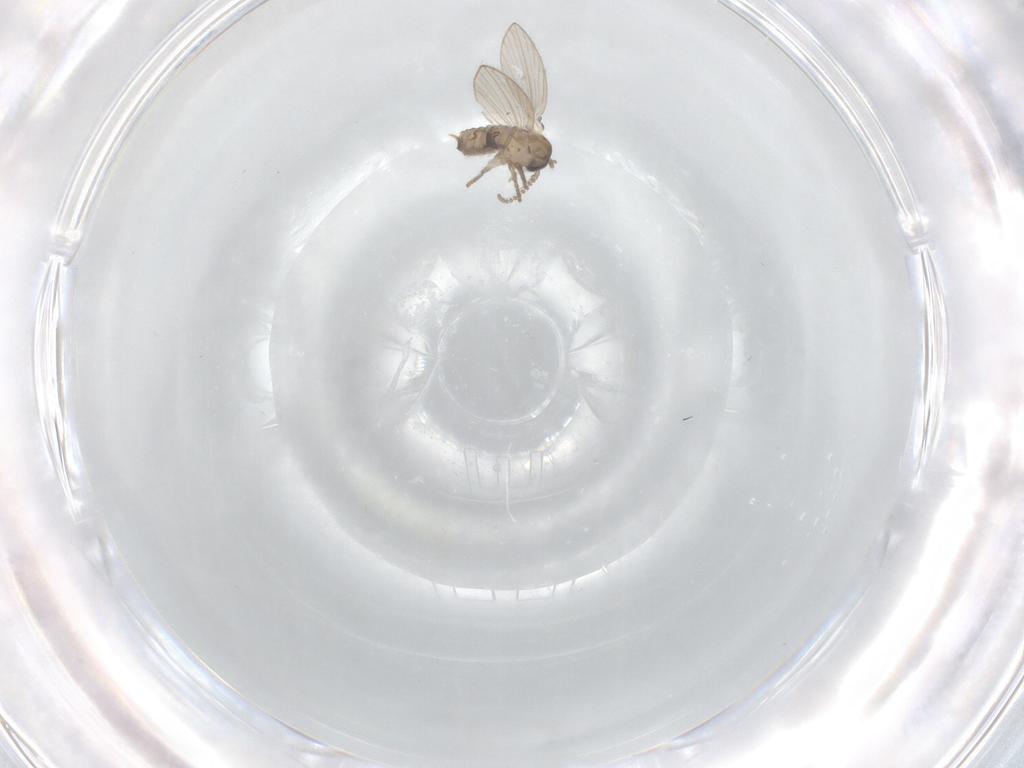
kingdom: Animalia
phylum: Arthropoda
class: Insecta
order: Diptera
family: Psychodidae
